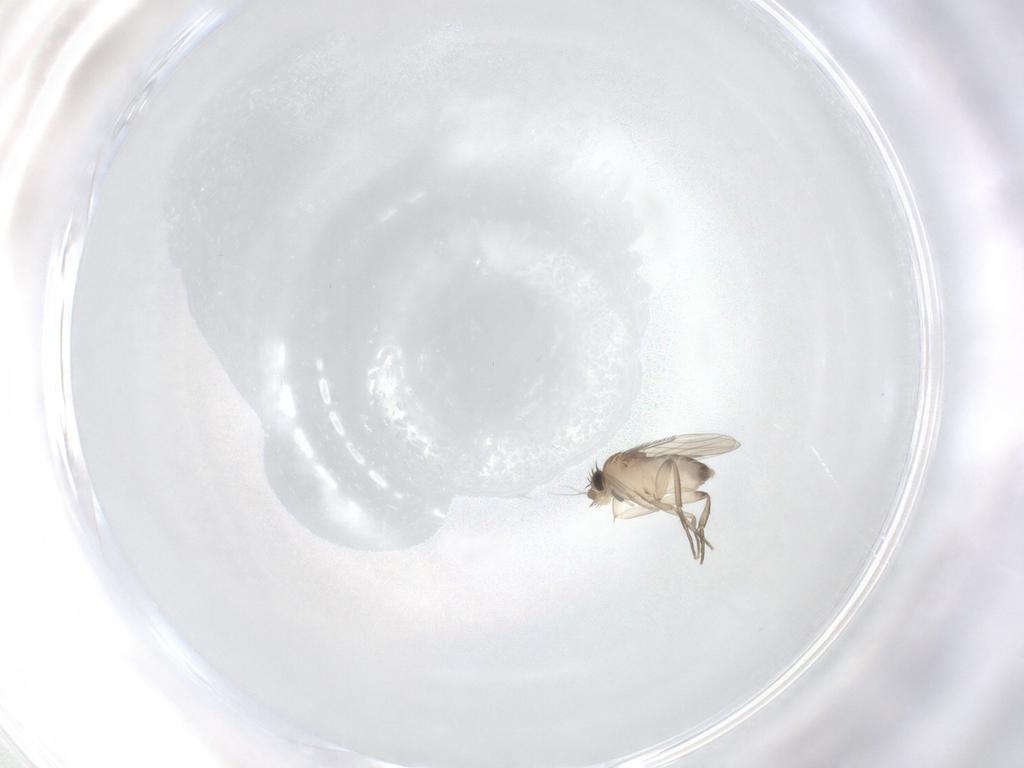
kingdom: Animalia
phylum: Arthropoda
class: Insecta
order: Diptera
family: Phoridae
